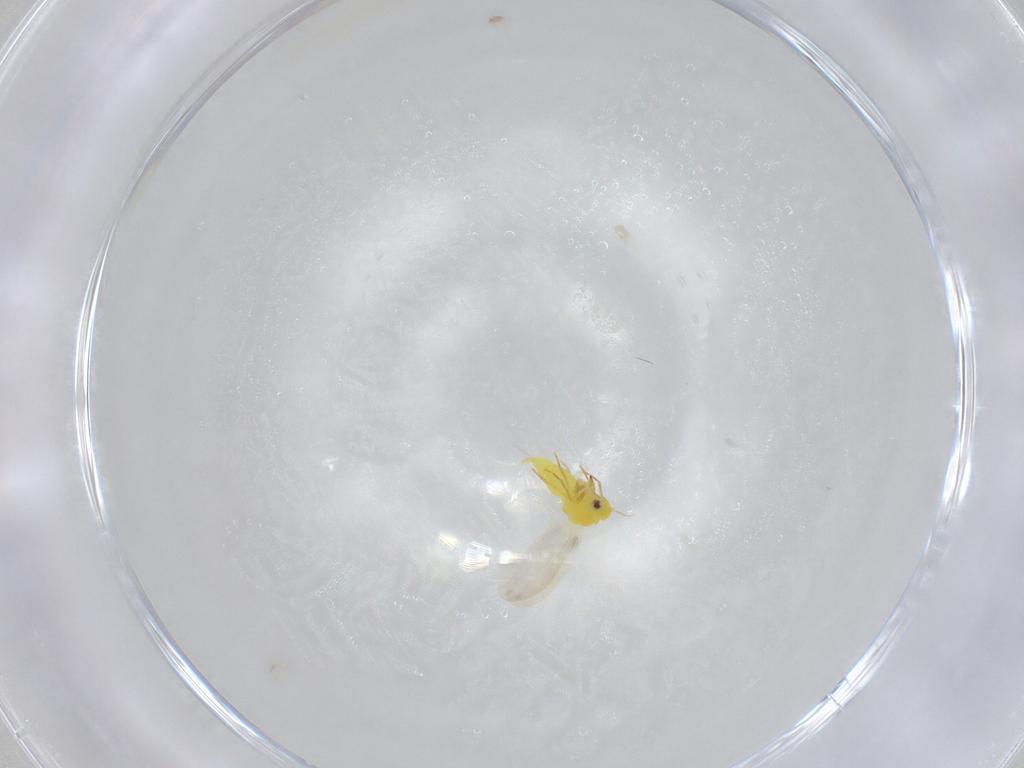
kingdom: Animalia
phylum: Arthropoda
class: Insecta
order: Hemiptera
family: Aleyrodidae
